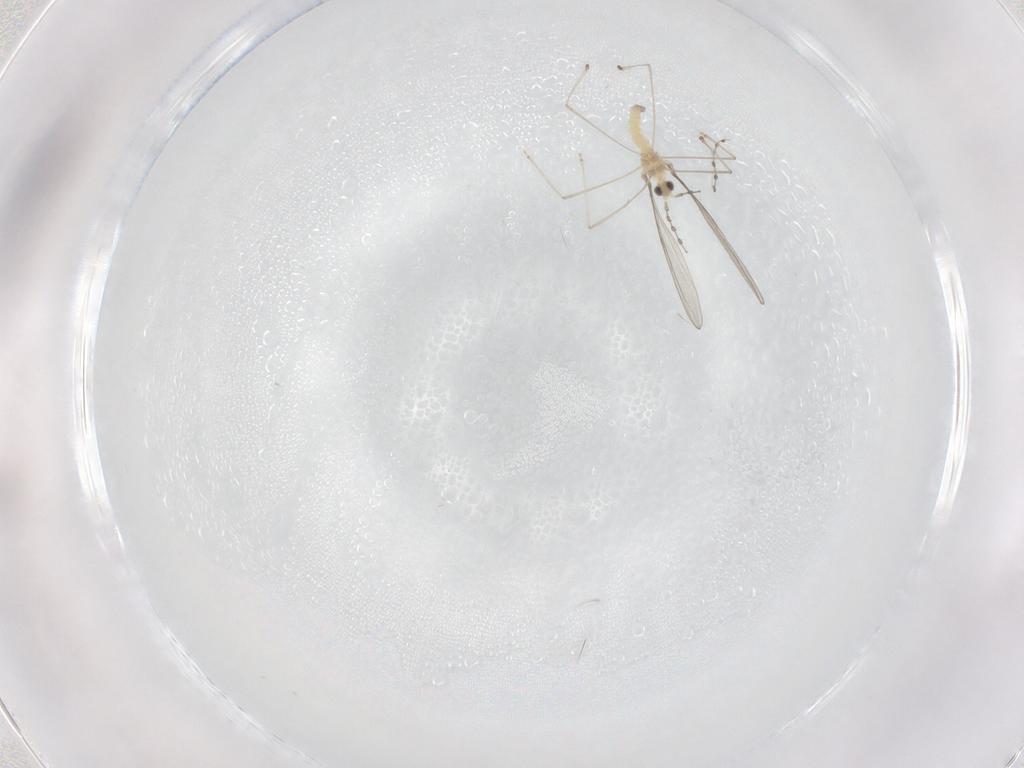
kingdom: Animalia
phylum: Arthropoda
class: Insecta
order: Diptera
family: Cecidomyiidae
